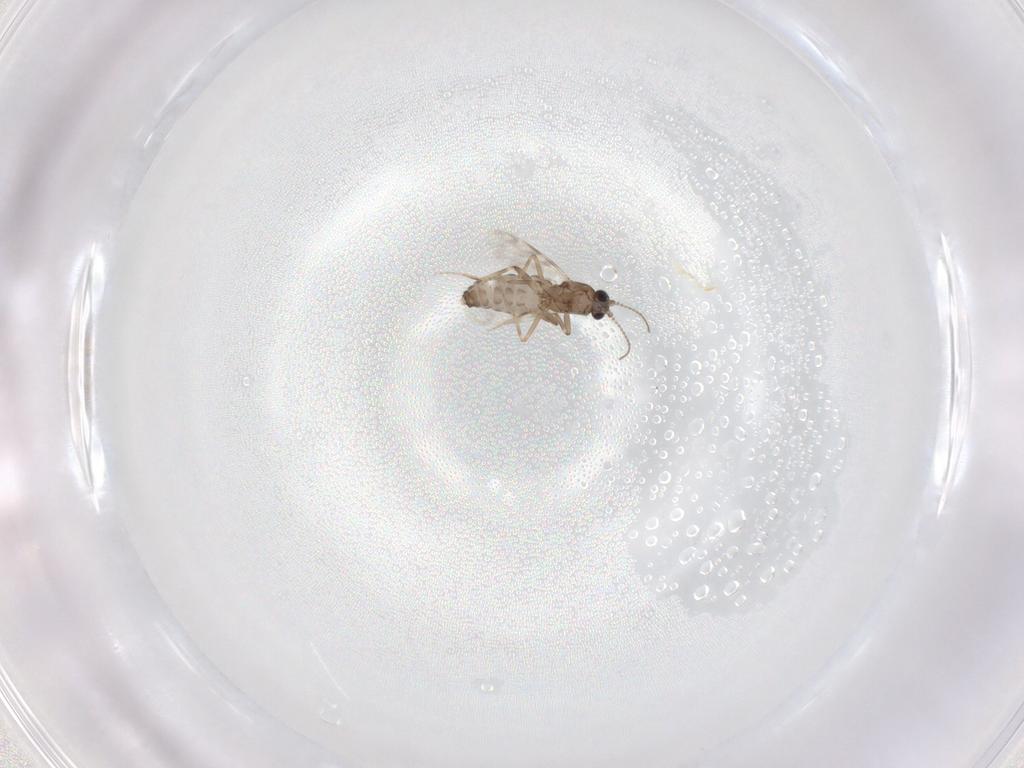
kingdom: Animalia
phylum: Arthropoda
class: Insecta
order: Diptera
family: Ceratopogonidae
